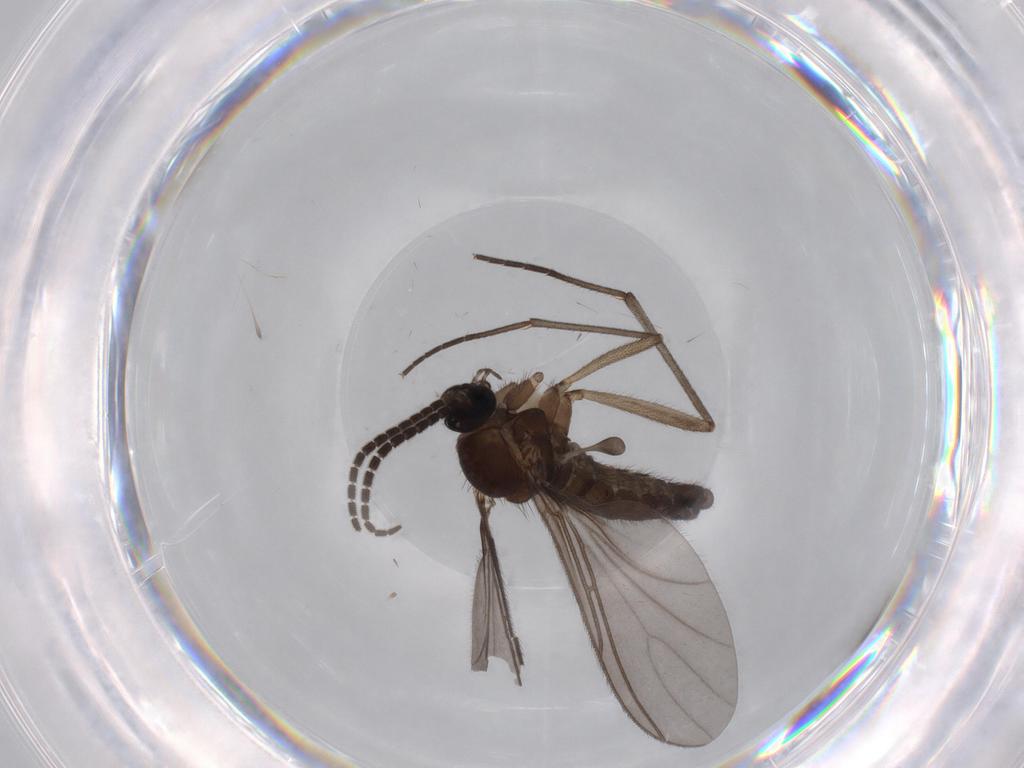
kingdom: Animalia
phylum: Arthropoda
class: Insecta
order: Diptera
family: Sciaridae
